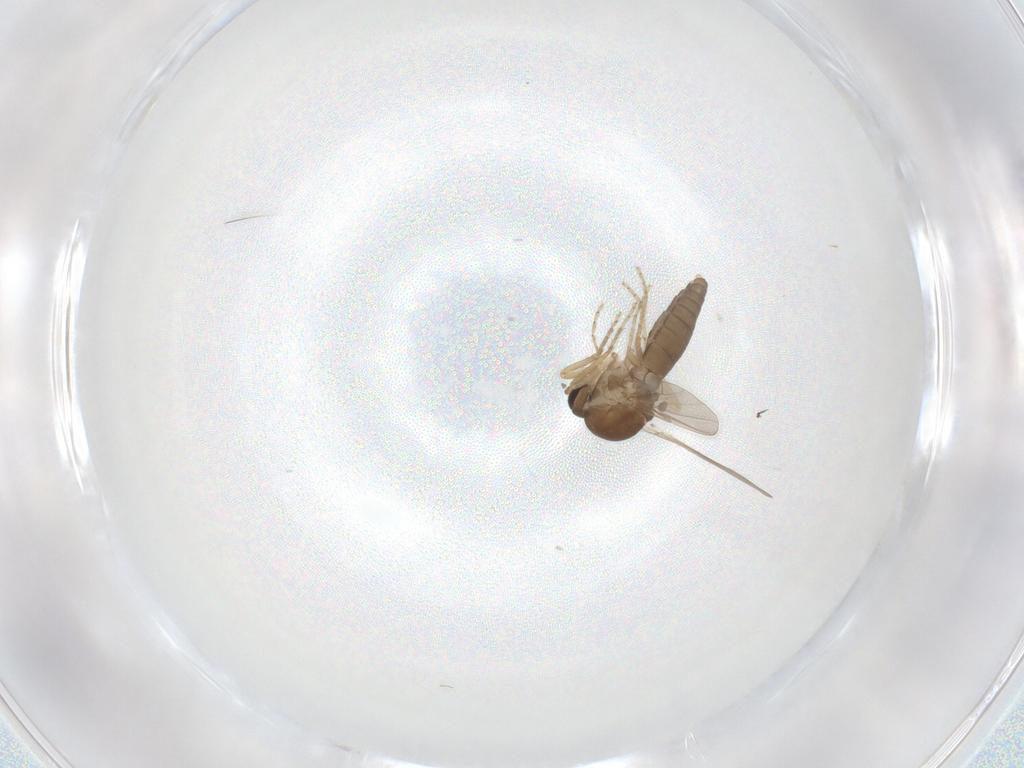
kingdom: Animalia
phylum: Arthropoda
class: Insecta
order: Diptera
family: Ceratopogonidae
